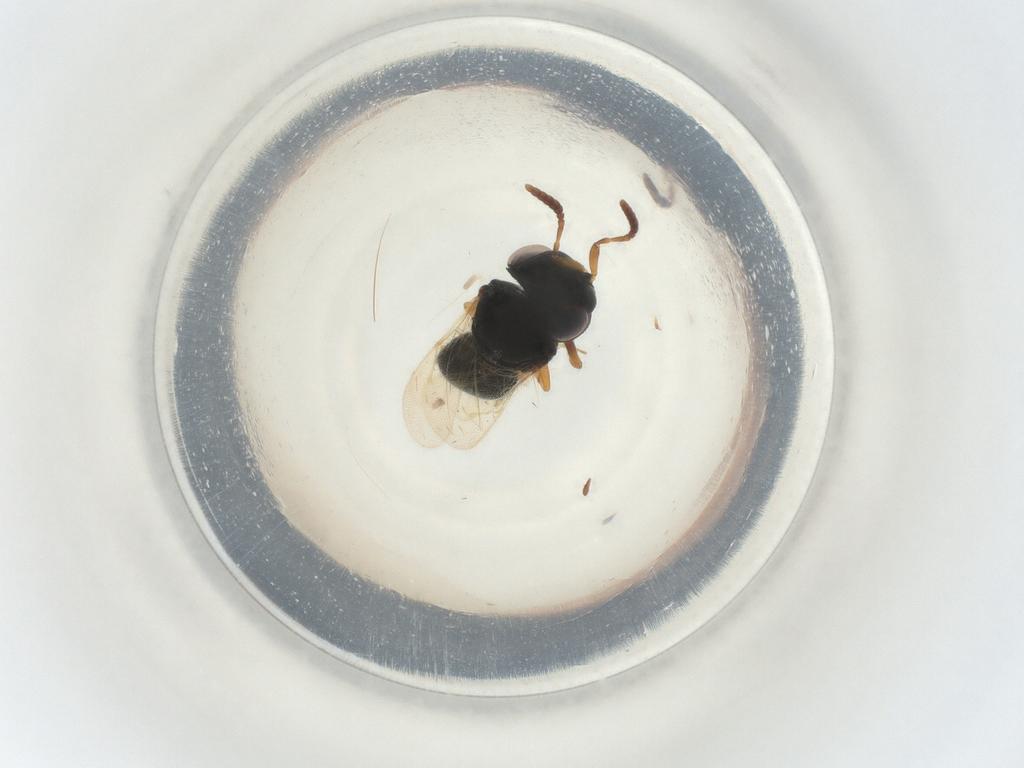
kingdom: Animalia
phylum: Arthropoda
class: Insecta
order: Hymenoptera
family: Scelionidae
